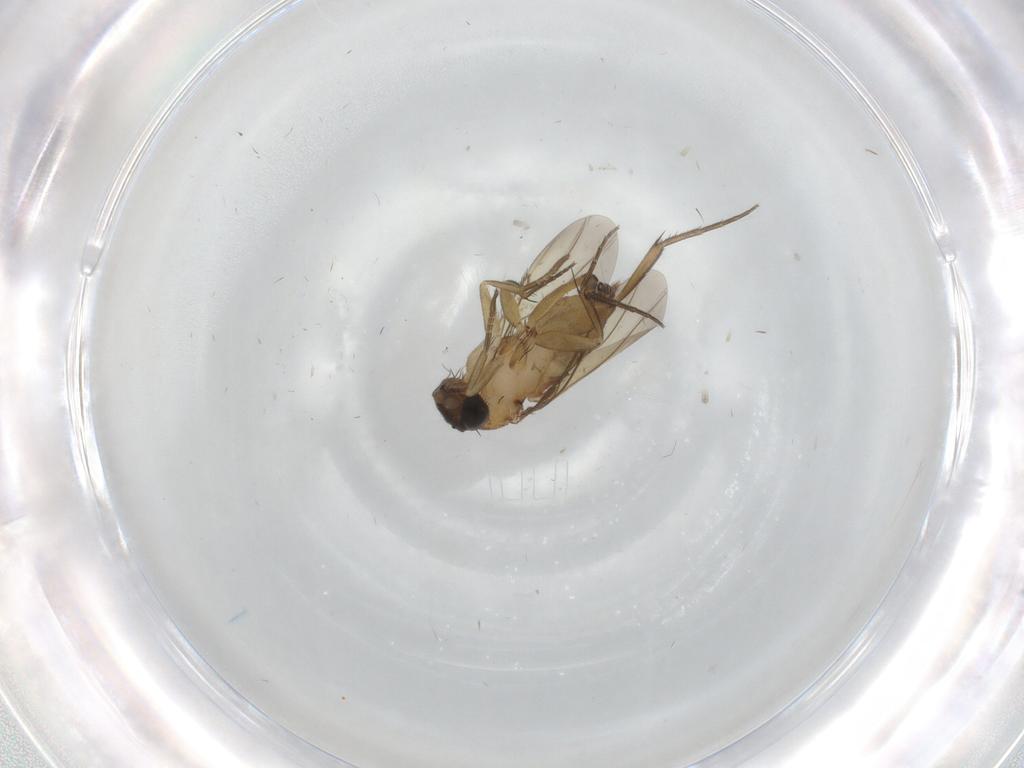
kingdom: Animalia
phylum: Arthropoda
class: Insecta
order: Diptera
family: Phoridae
